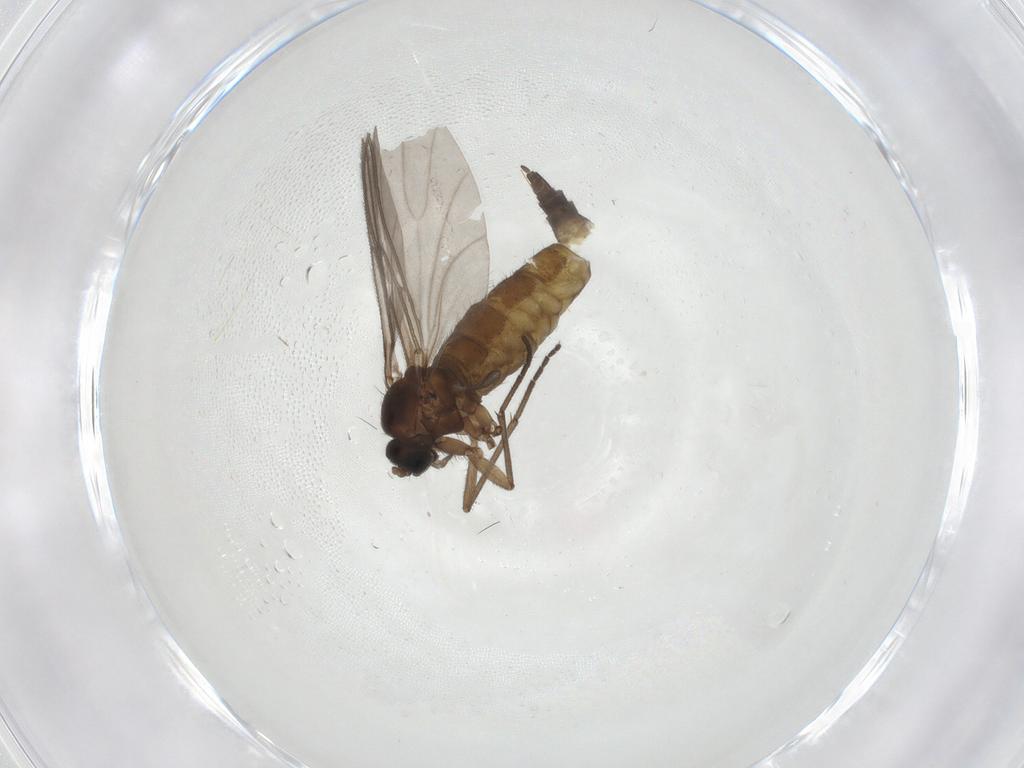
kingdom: Animalia
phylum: Arthropoda
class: Insecta
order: Diptera
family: Sciaridae
